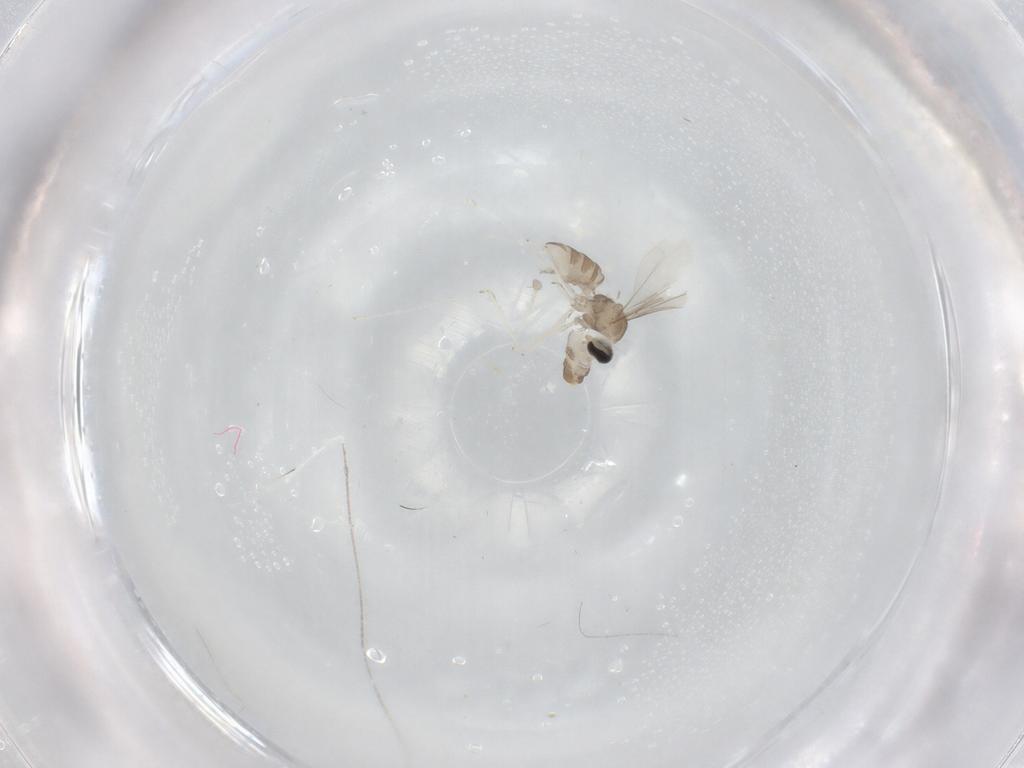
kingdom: Animalia
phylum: Arthropoda
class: Insecta
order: Diptera
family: Cecidomyiidae
